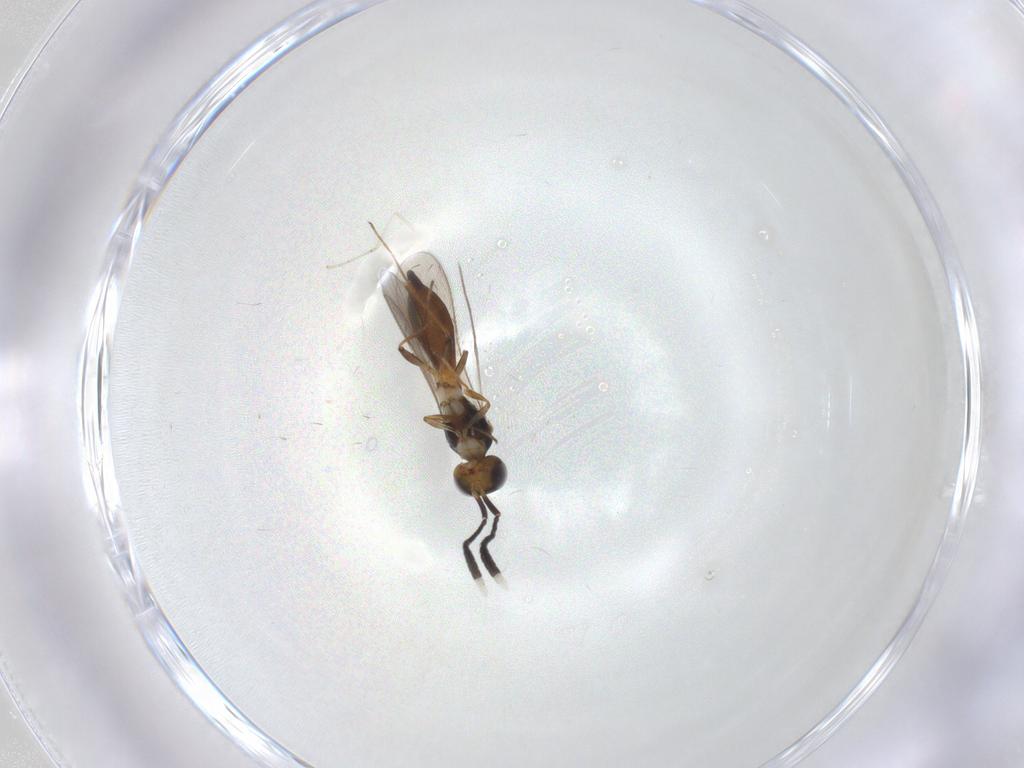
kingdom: Animalia
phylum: Arthropoda
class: Insecta
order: Hymenoptera
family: Scelionidae
